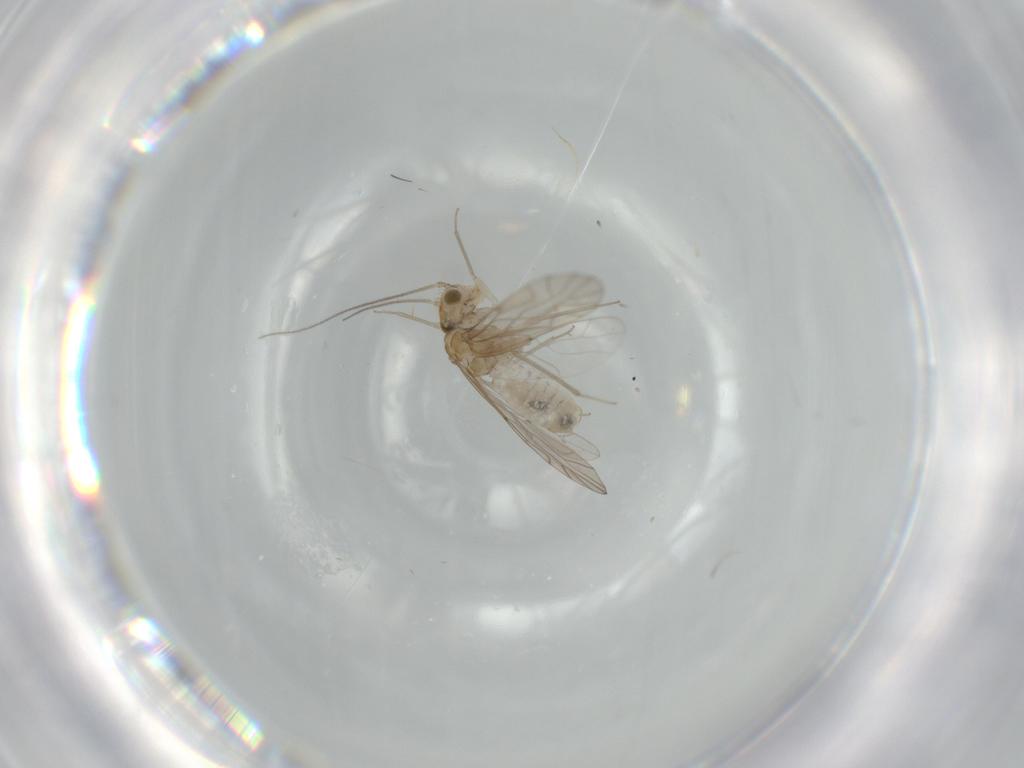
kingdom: Animalia
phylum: Arthropoda
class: Insecta
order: Psocodea
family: Lachesillidae
